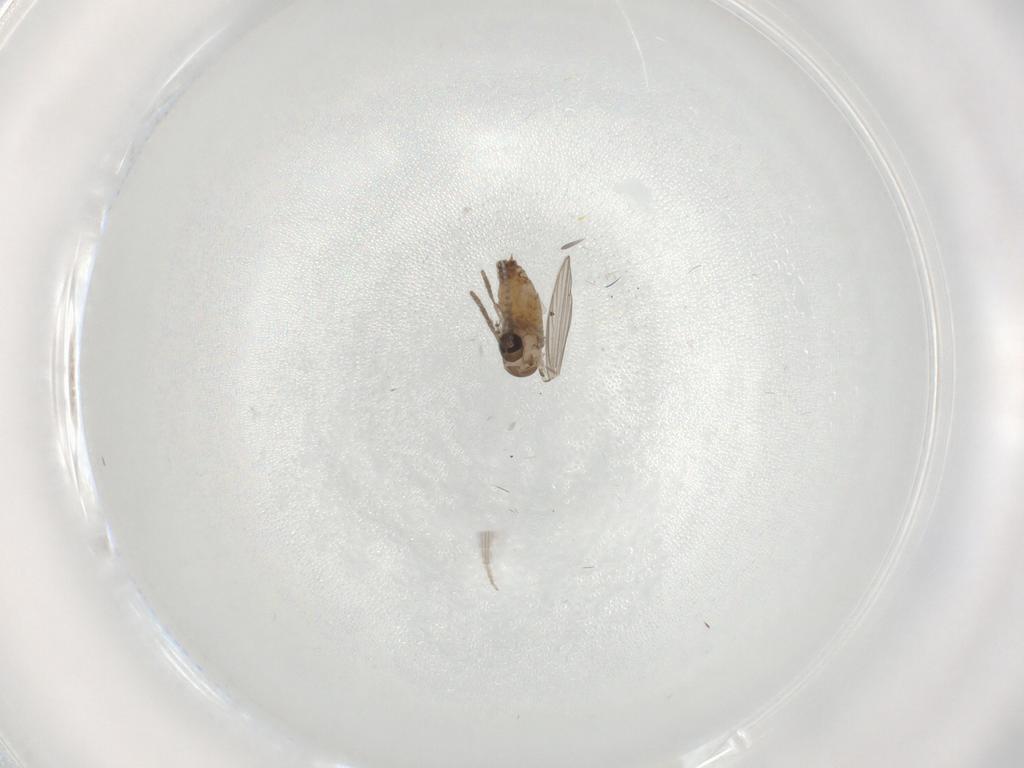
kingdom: Animalia
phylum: Arthropoda
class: Insecta
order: Diptera
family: Psychodidae
